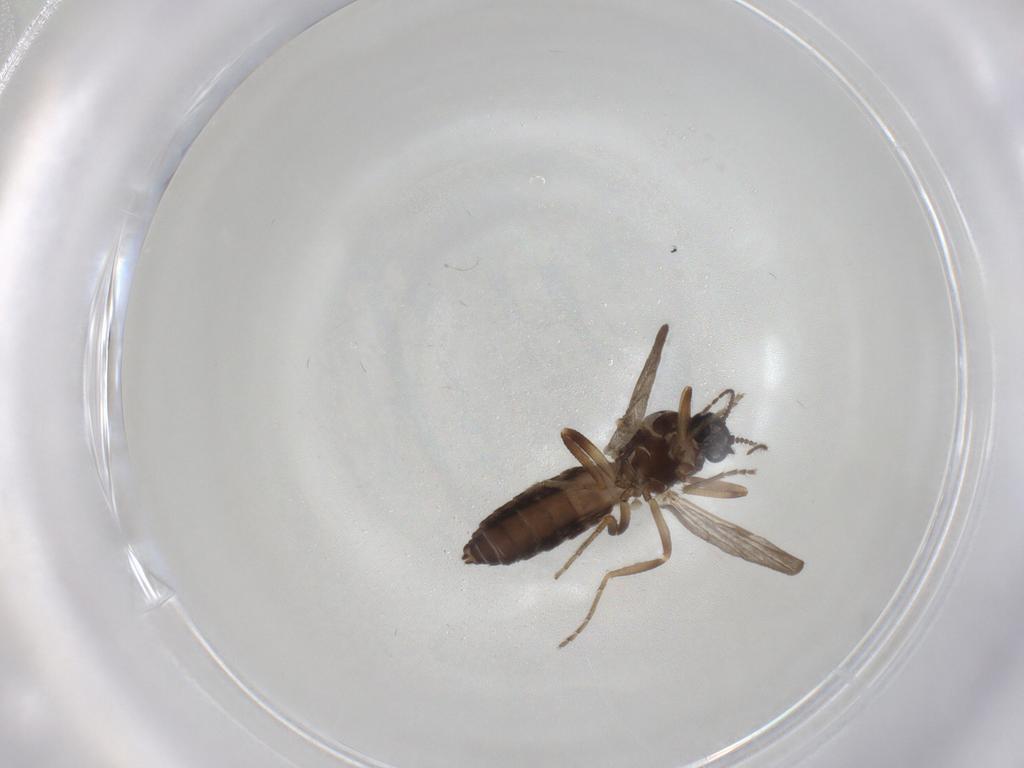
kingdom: Animalia
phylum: Arthropoda
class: Insecta
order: Diptera
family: Ceratopogonidae
